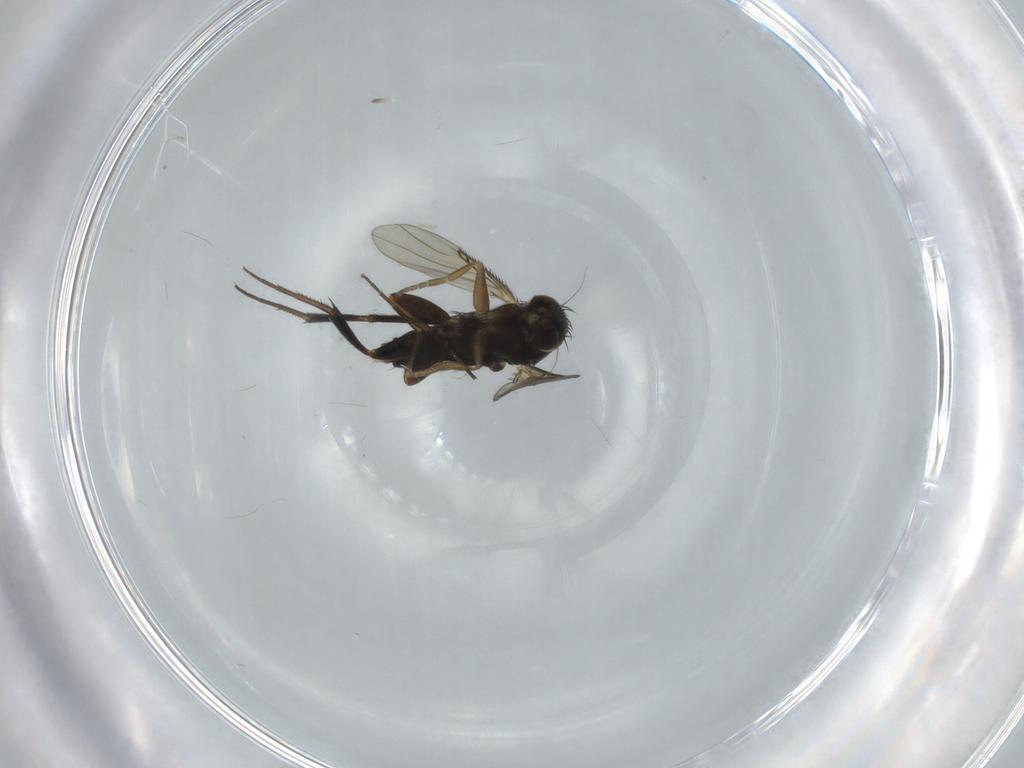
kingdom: Animalia
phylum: Arthropoda
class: Insecta
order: Diptera
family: Phoridae
